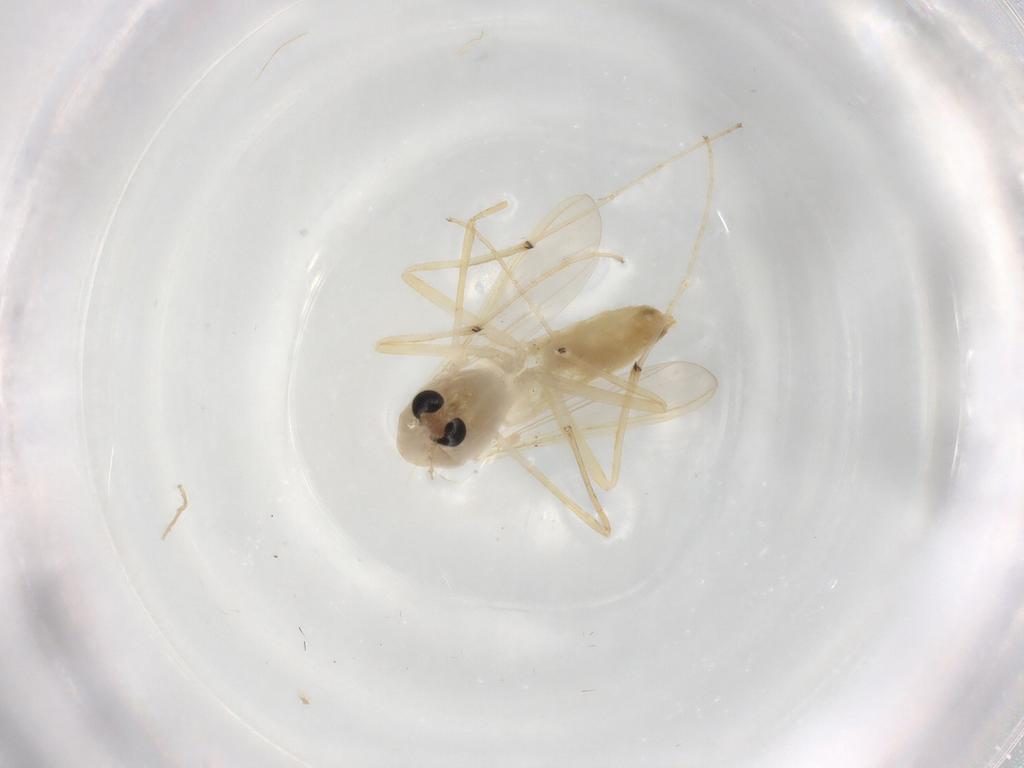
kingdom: Animalia
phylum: Arthropoda
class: Insecta
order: Diptera
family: Chironomidae
